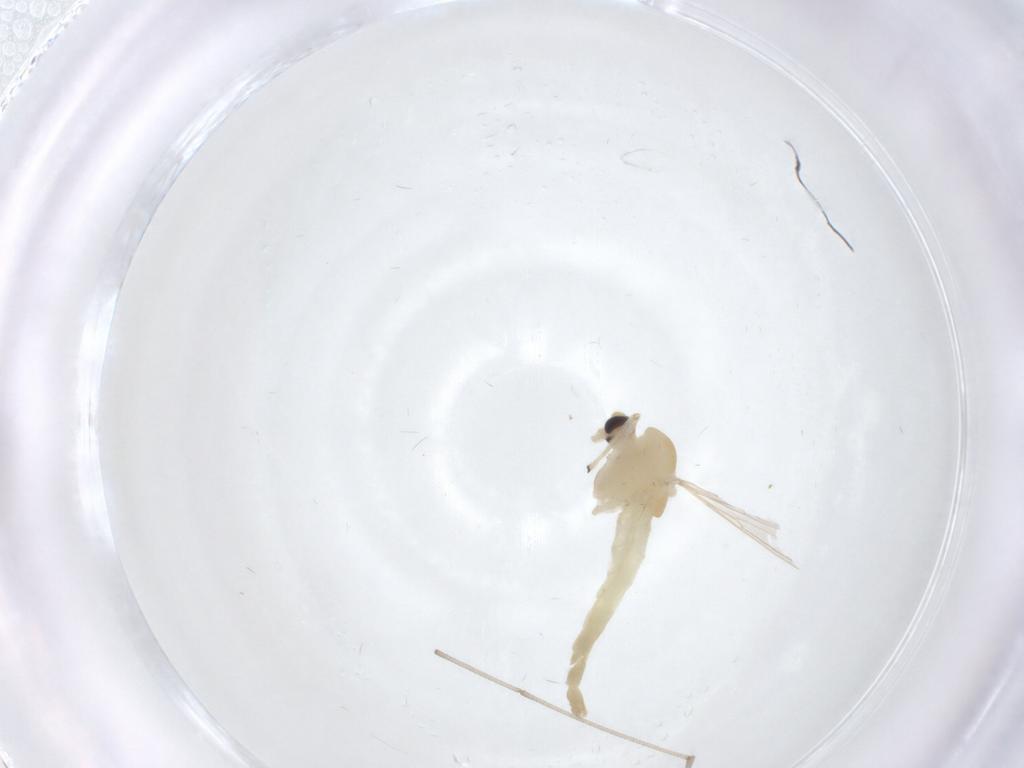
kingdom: Animalia
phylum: Arthropoda
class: Insecta
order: Diptera
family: Chironomidae
